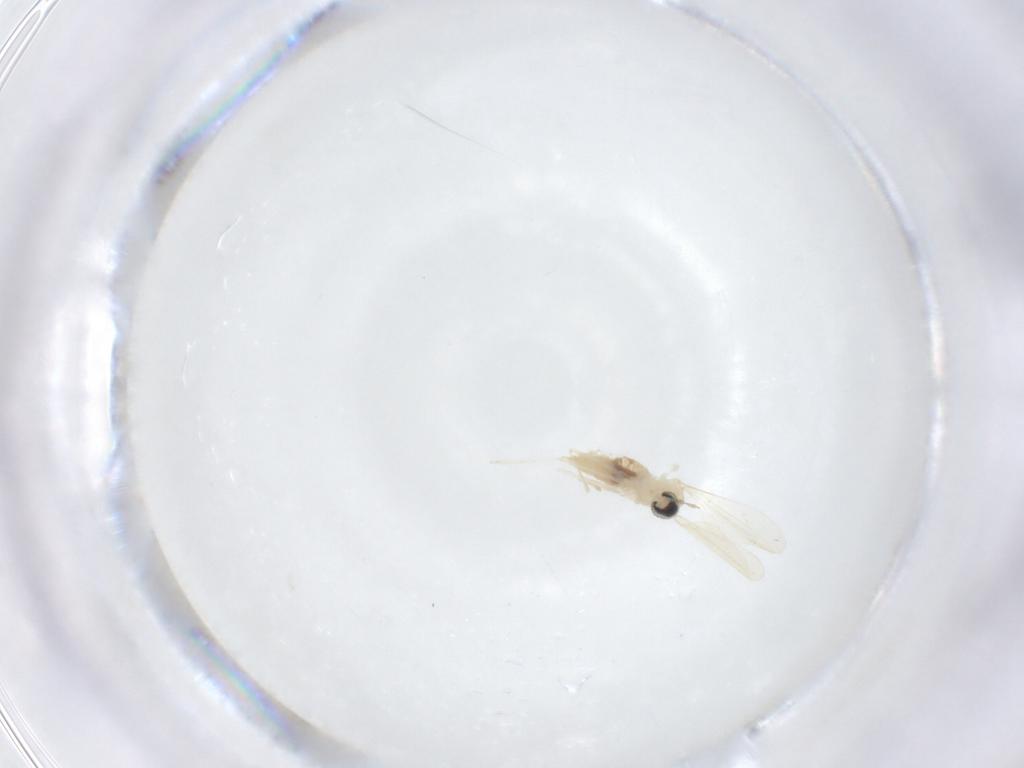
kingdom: Animalia
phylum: Arthropoda
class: Insecta
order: Diptera
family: Cecidomyiidae
